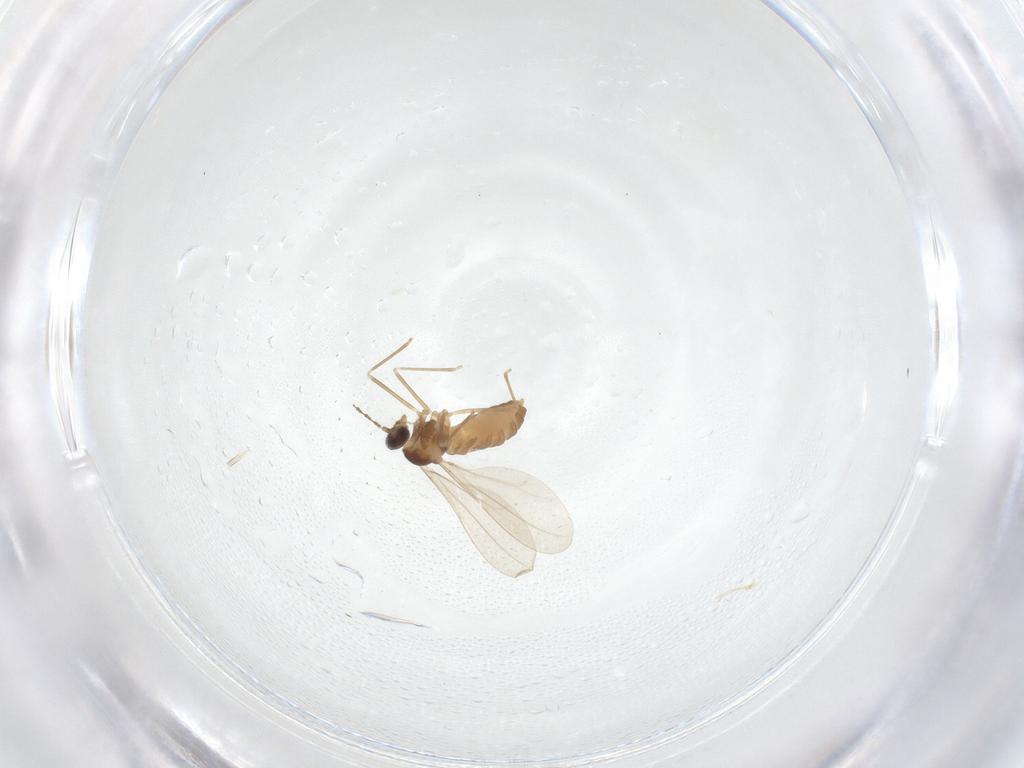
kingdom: Animalia
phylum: Arthropoda
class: Insecta
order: Diptera
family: Cecidomyiidae
